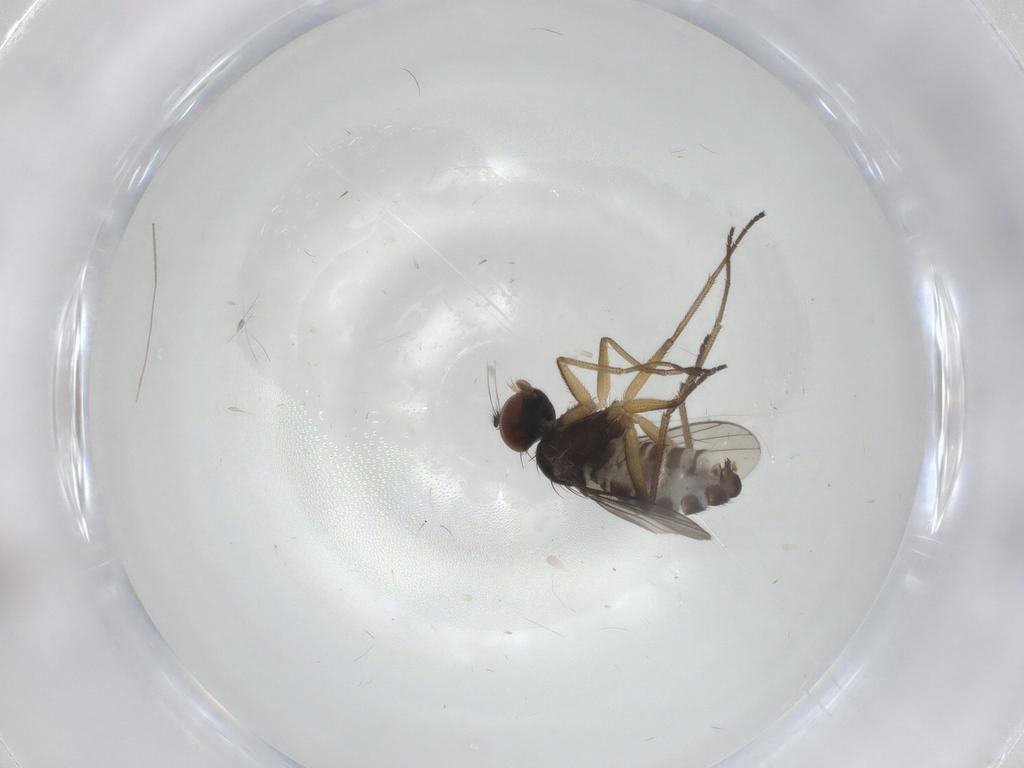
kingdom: Animalia
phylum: Arthropoda
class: Insecta
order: Diptera
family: Dolichopodidae
